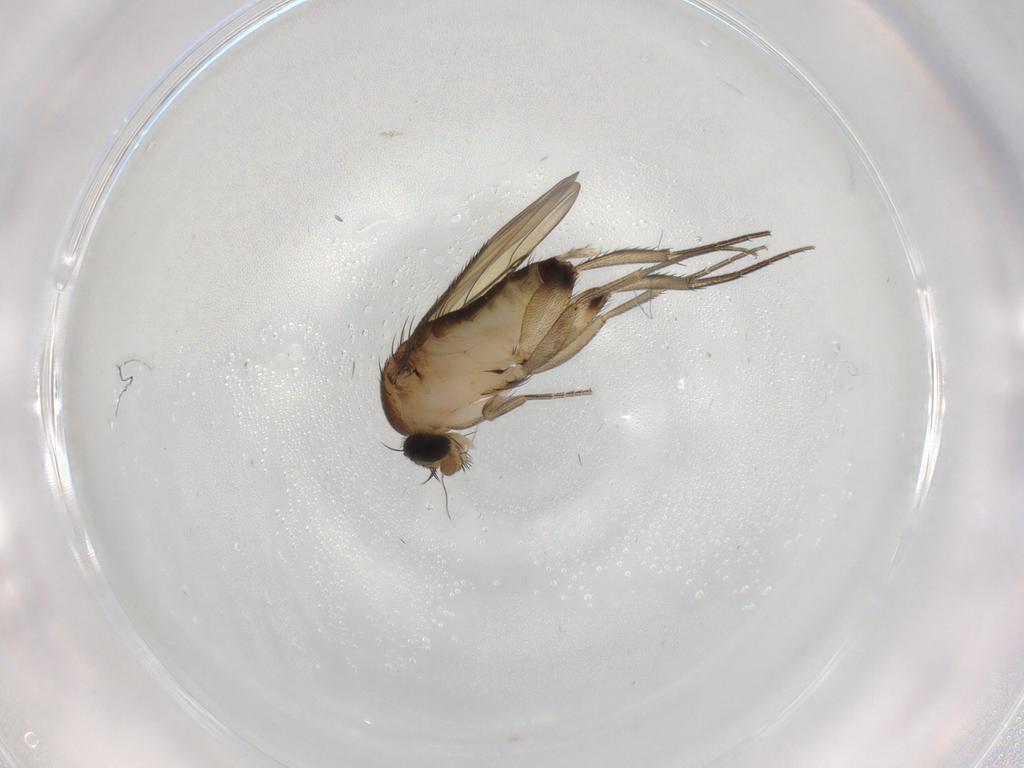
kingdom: Animalia
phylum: Arthropoda
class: Insecta
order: Diptera
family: Phoridae
